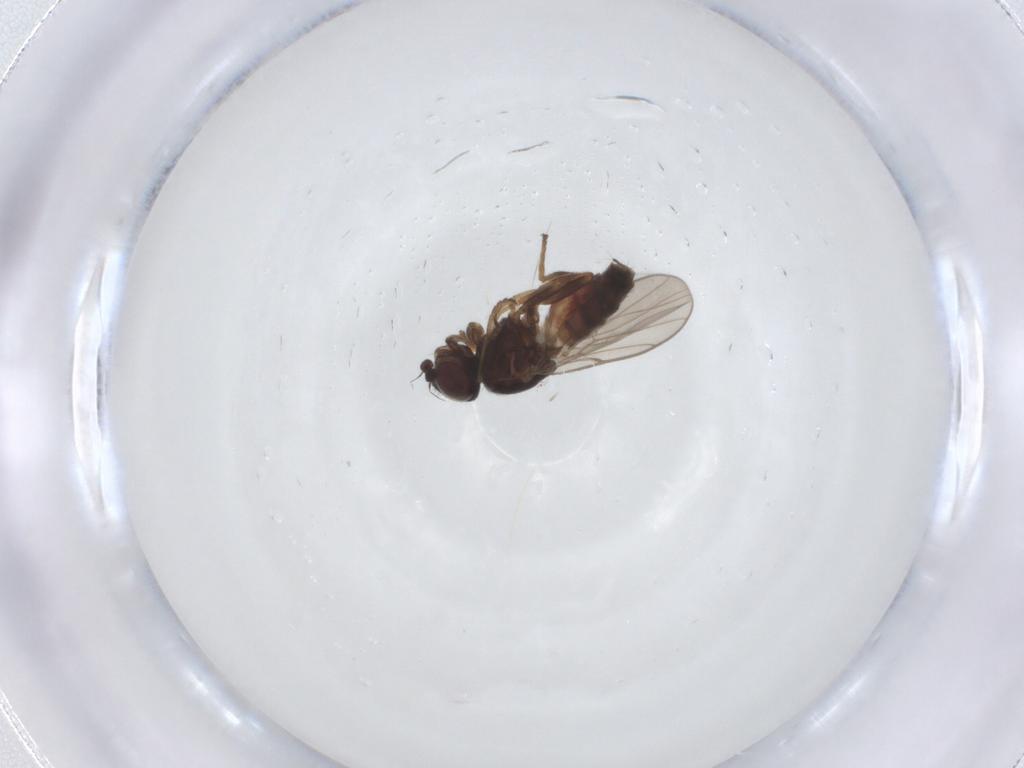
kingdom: Animalia
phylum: Arthropoda
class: Insecta
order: Diptera
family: Chloropidae
